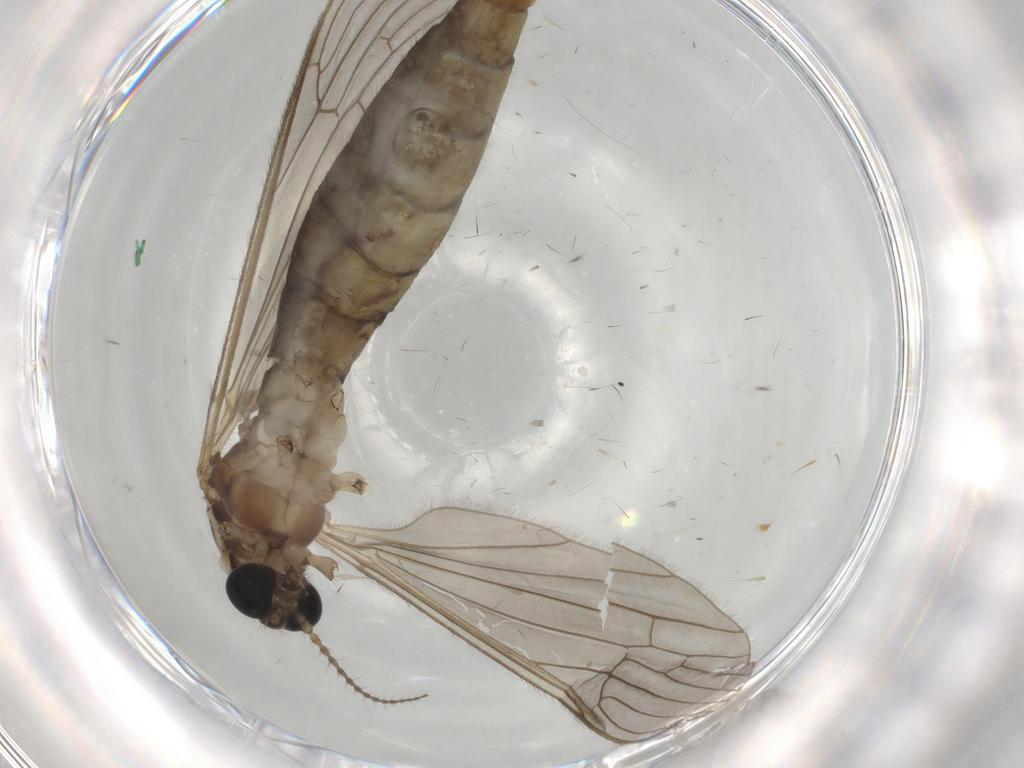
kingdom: Animalia
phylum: Arthropoda
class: Insecta
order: Diptera
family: Limoniidae
